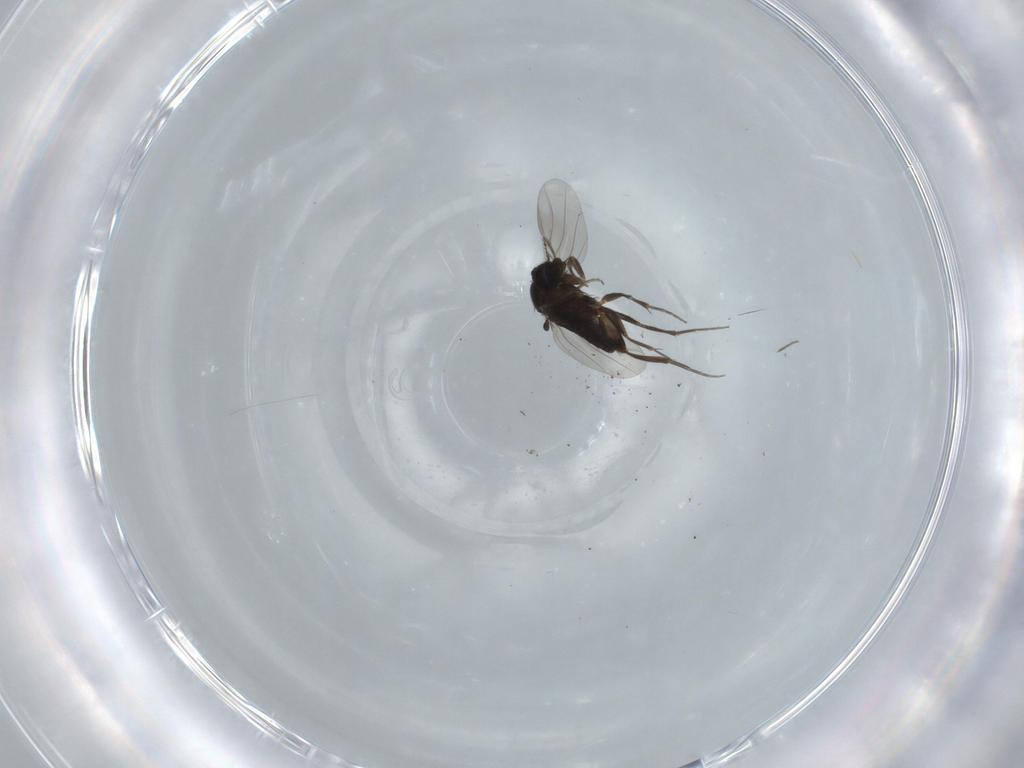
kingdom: Animalia
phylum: Arthropoda
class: Insecta
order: Diptera
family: Phoridae
